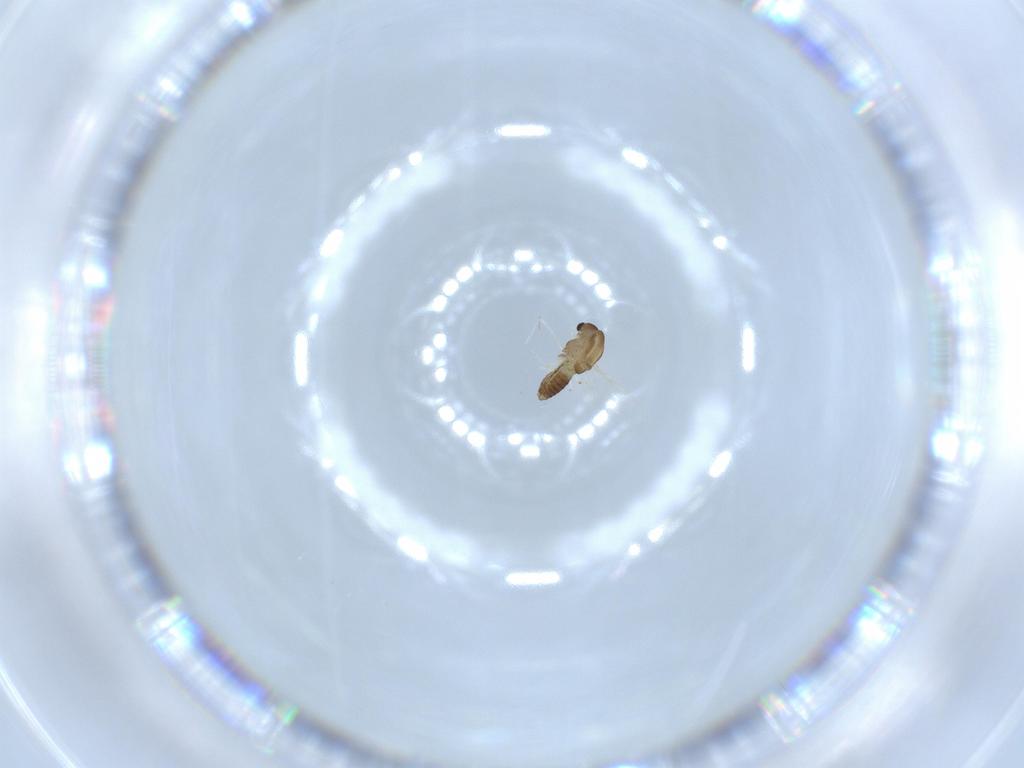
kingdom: Animalia
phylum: Arthropoda
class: Insecta
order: Diptera
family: Chironomidae
